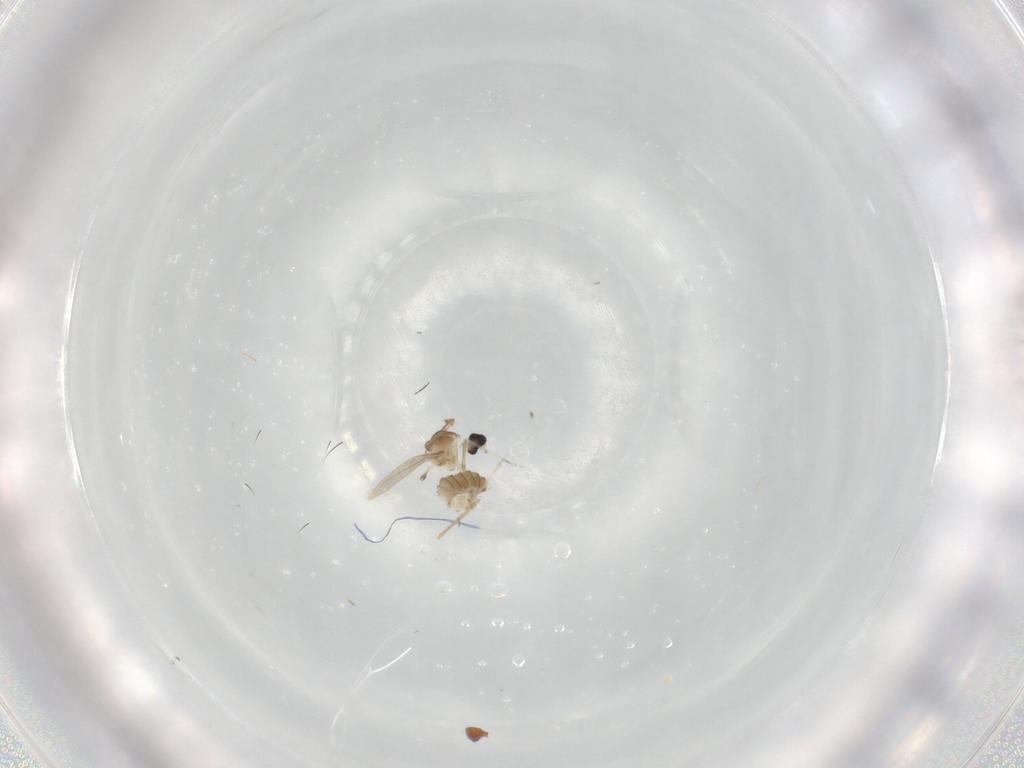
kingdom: Animalia
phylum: Arthropoda
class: Insecta
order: Diptera
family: Cecidomyiidae
